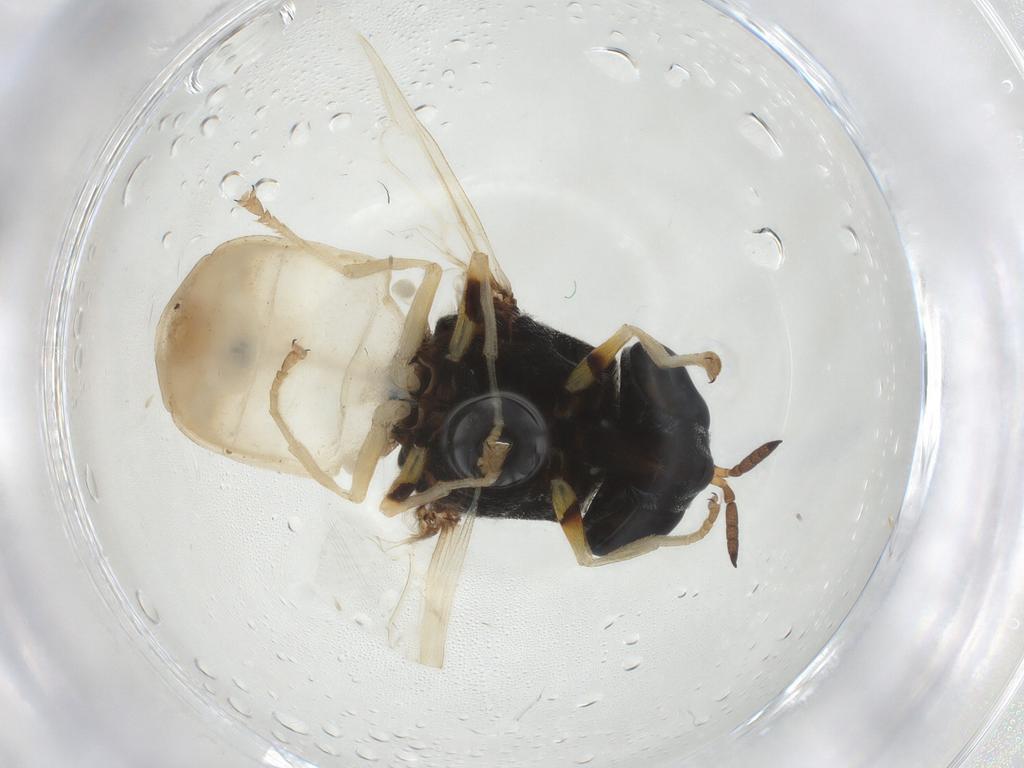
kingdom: Animalia
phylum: Arthropoda
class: Insecta
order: Diptera
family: Stratiomyidae
